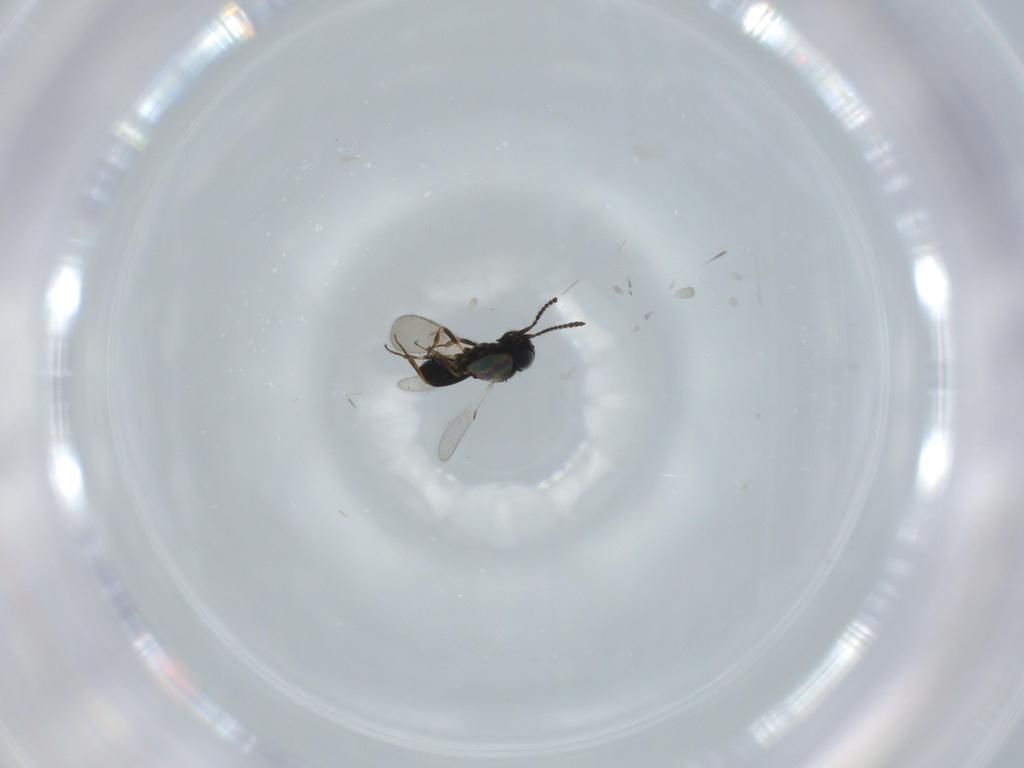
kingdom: Animalia
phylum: Arthropoda
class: Insecta
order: Hymenoptera
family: Scelionidae
